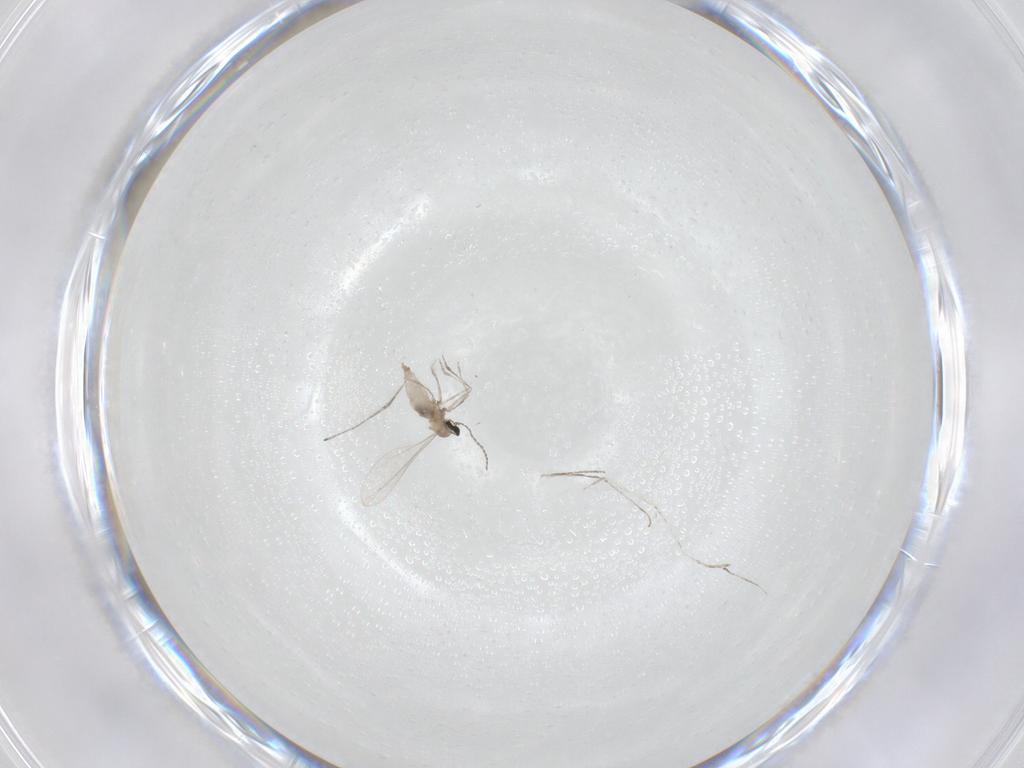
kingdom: Animalia
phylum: Arthropoda
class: Insecta
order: Diptera
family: Cecidomyiidae
